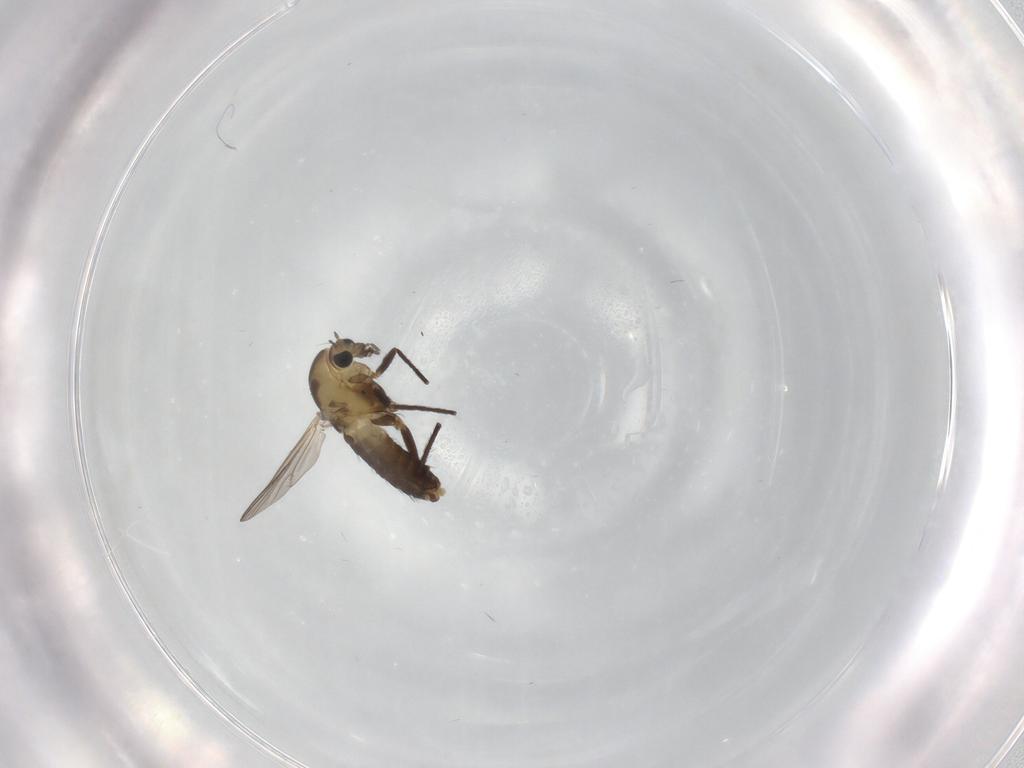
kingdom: Animalia
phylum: Arthropoda
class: Insecta
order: Diptera
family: Chironomidae
